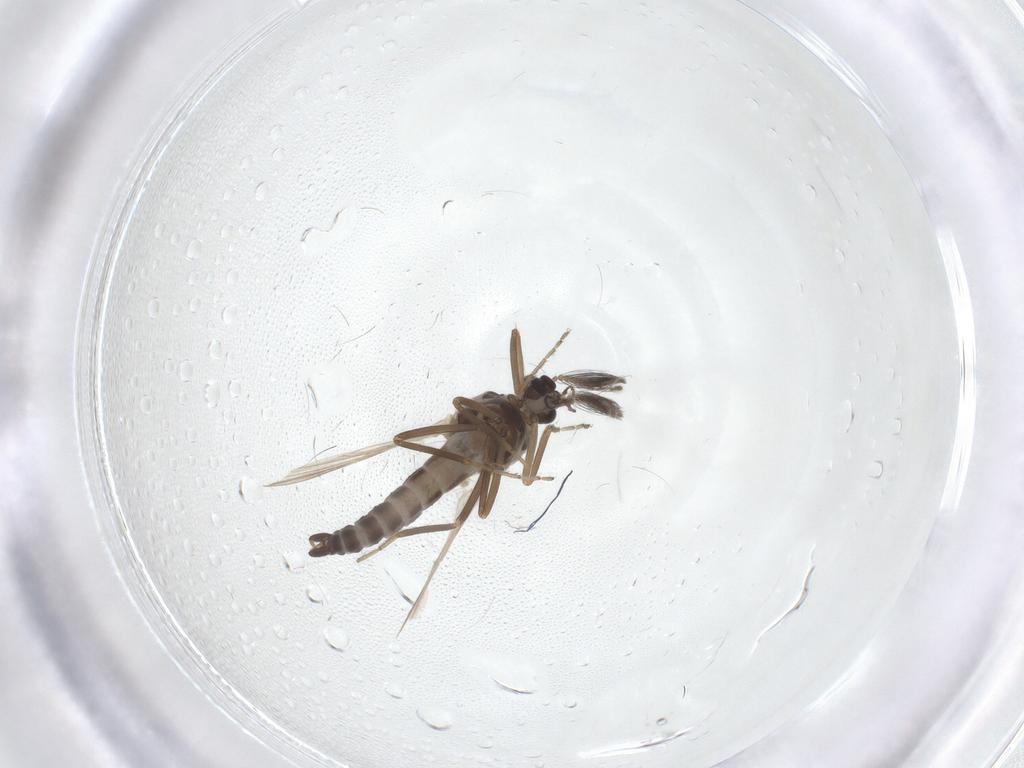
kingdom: Animalia
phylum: Arthropoda
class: Insecta
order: Diptera
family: Ceratopogonidae
